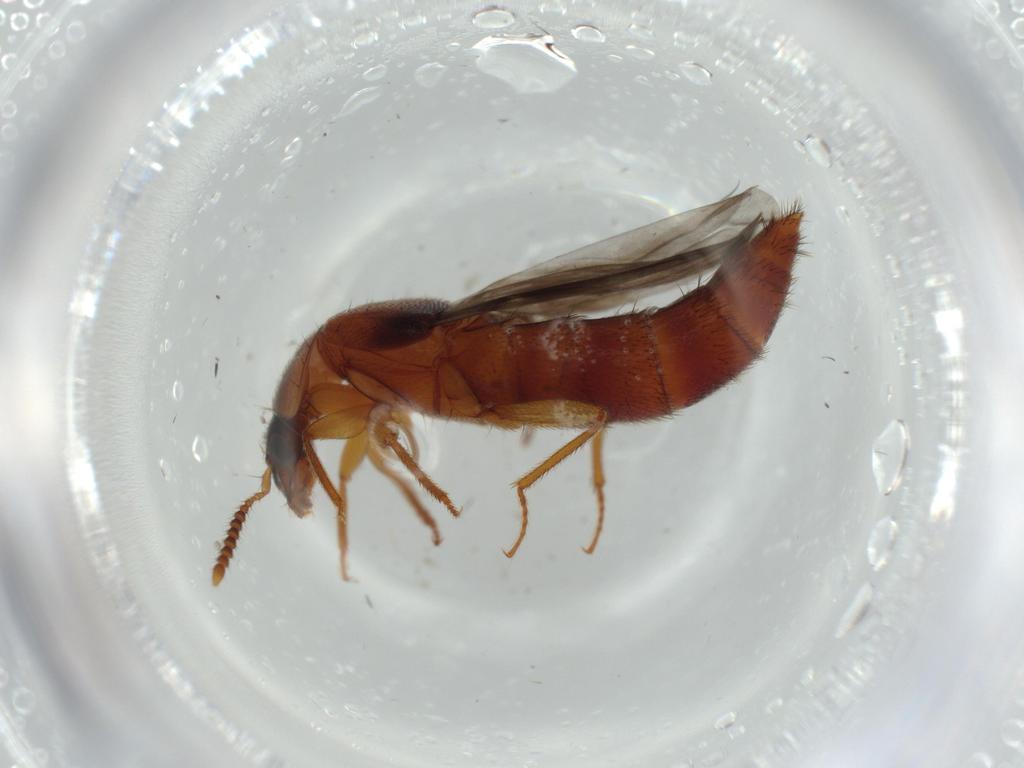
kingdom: Animalia
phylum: Arthropoda
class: Insecta
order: Coleoptera
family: Staphylinidae
